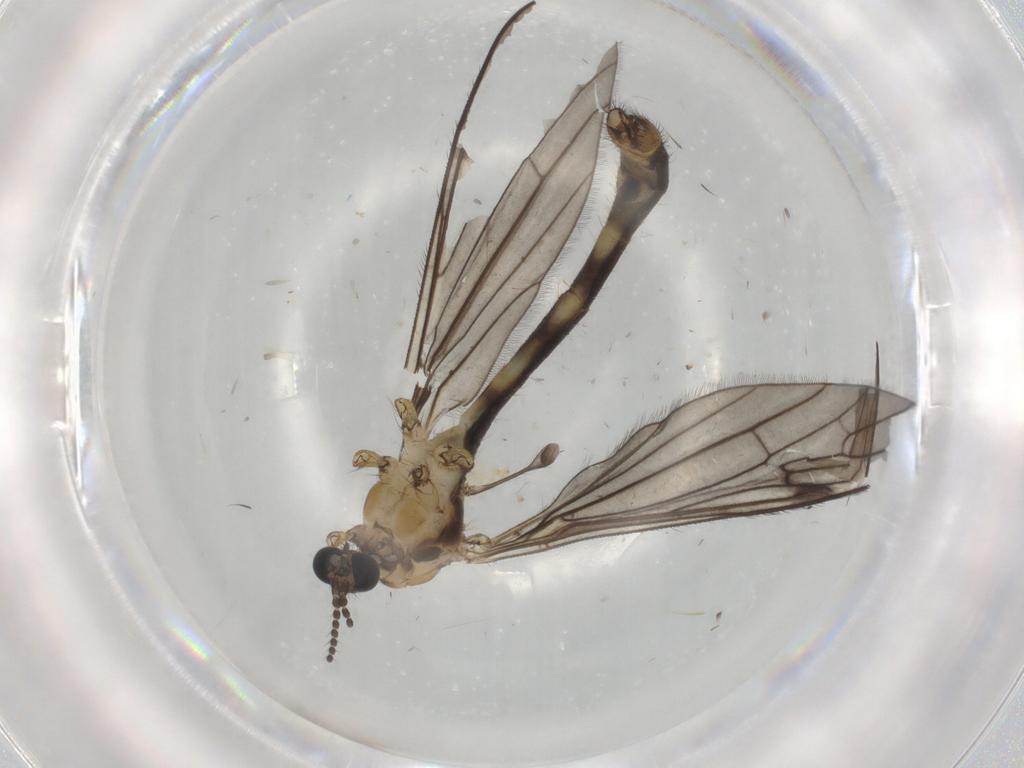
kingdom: Animalia
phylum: Arthropoda
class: Insecta
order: Diptera
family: Limoniidae
